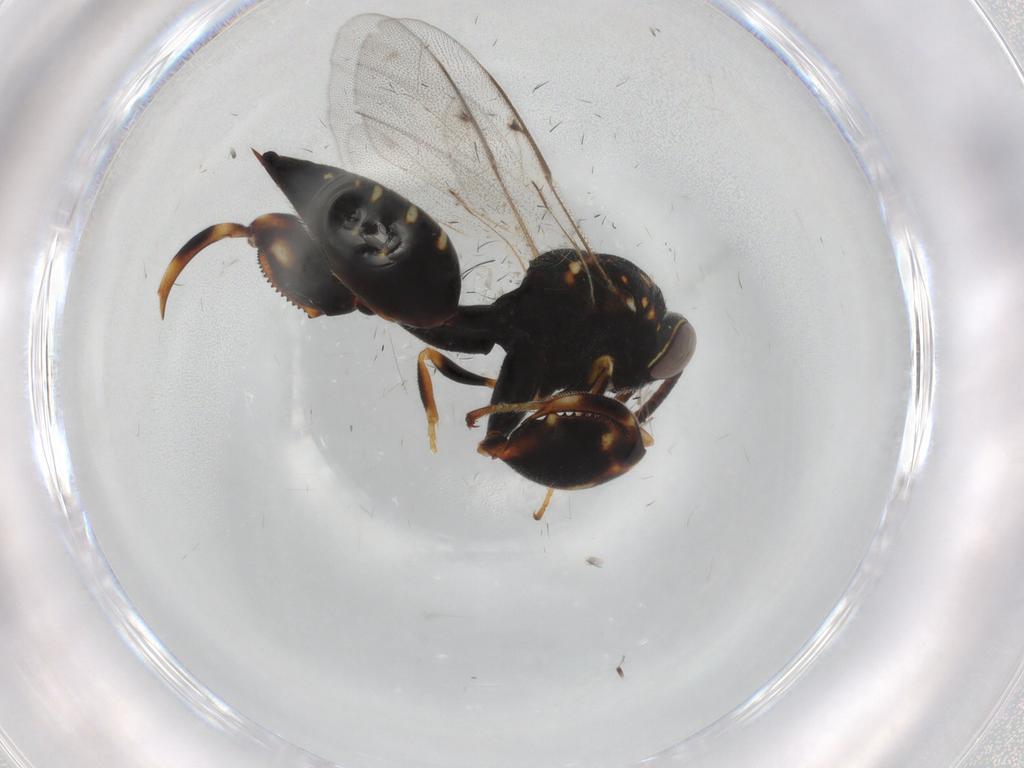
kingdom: Animalia
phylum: Arthropoda
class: Insecta
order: Hymenoptera
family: Chalcididae
